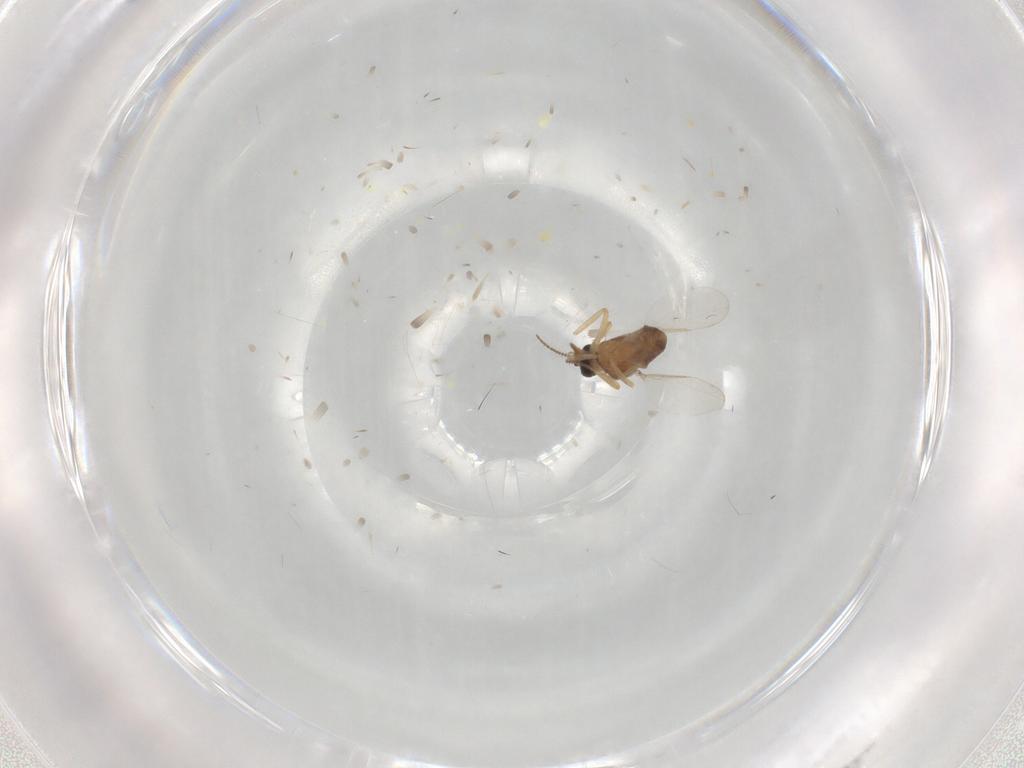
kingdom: Animalia
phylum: Arthropoda
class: Insecta
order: Diptera
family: Ceratopogonidae
